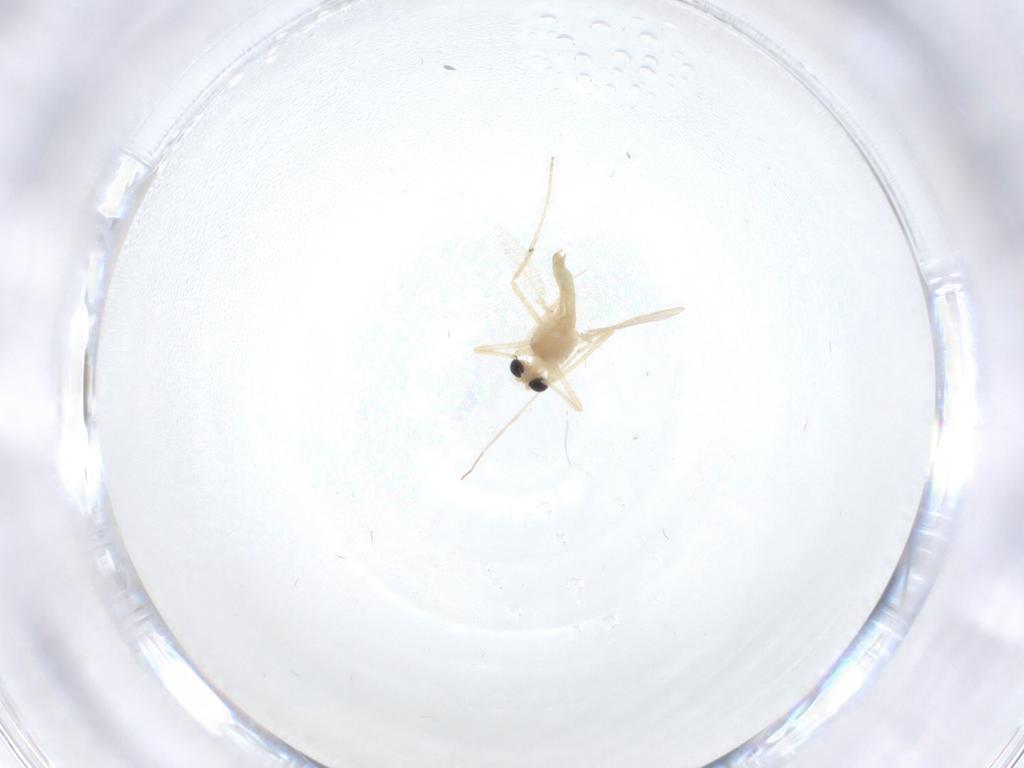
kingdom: Animalia
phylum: Arthropoda
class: Insecta
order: Diptera
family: Chironomidae
